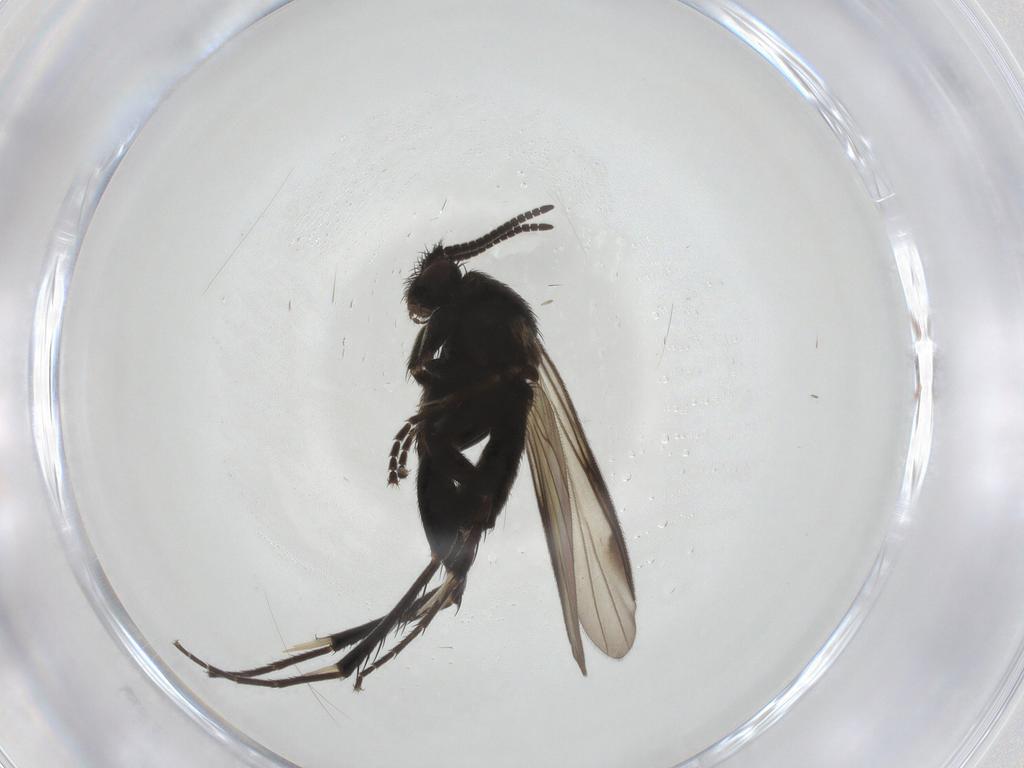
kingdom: Animalia
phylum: Arthropoda
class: Insecta
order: Diptera
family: Mycetophilidae
